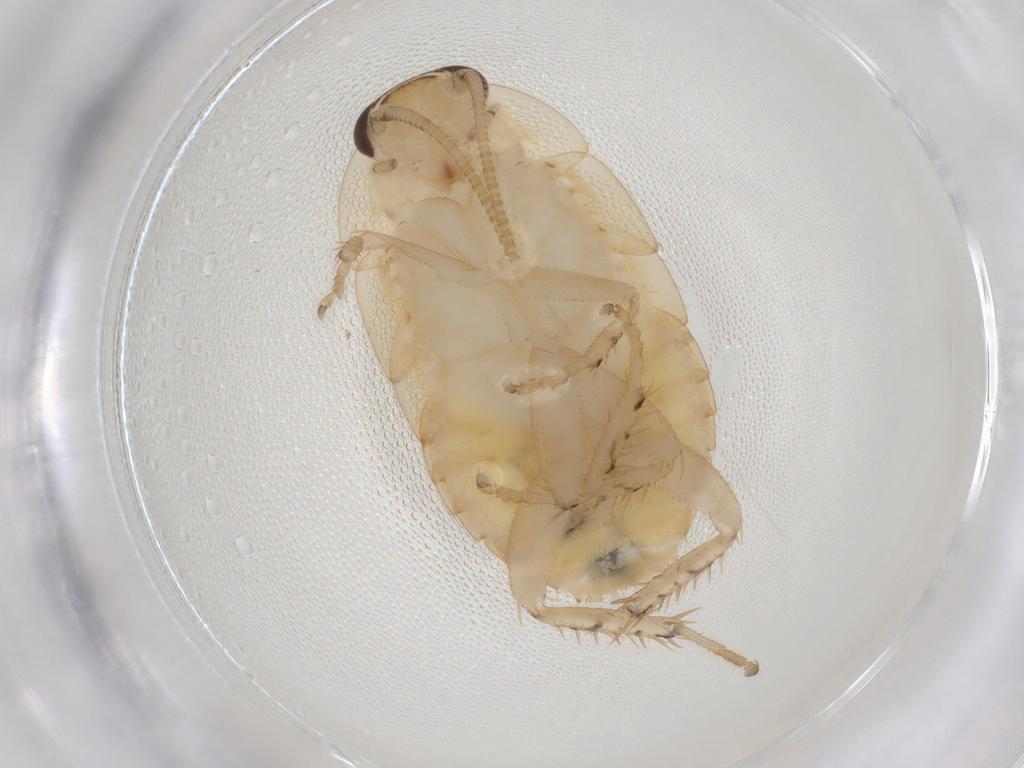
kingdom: Animalia
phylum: Arthropoda
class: Insecta
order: Blattodea
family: Ectobiidae
